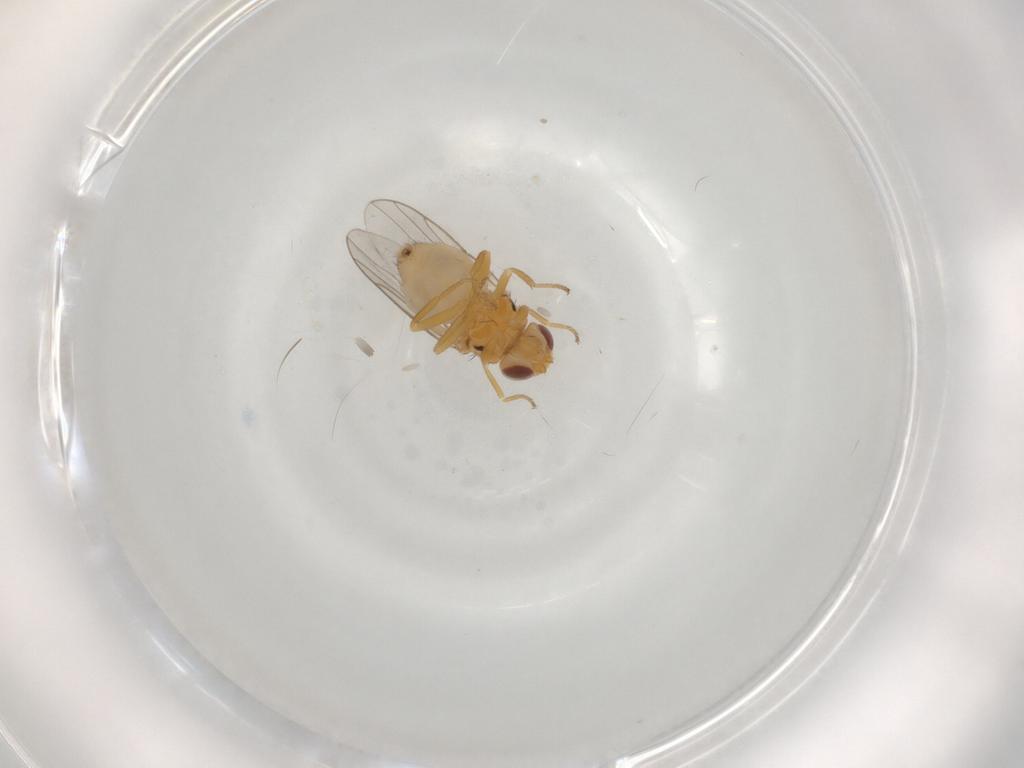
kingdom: Animalia
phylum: Arthropoda
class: Insecta
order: Diptera
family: Chloropidae
